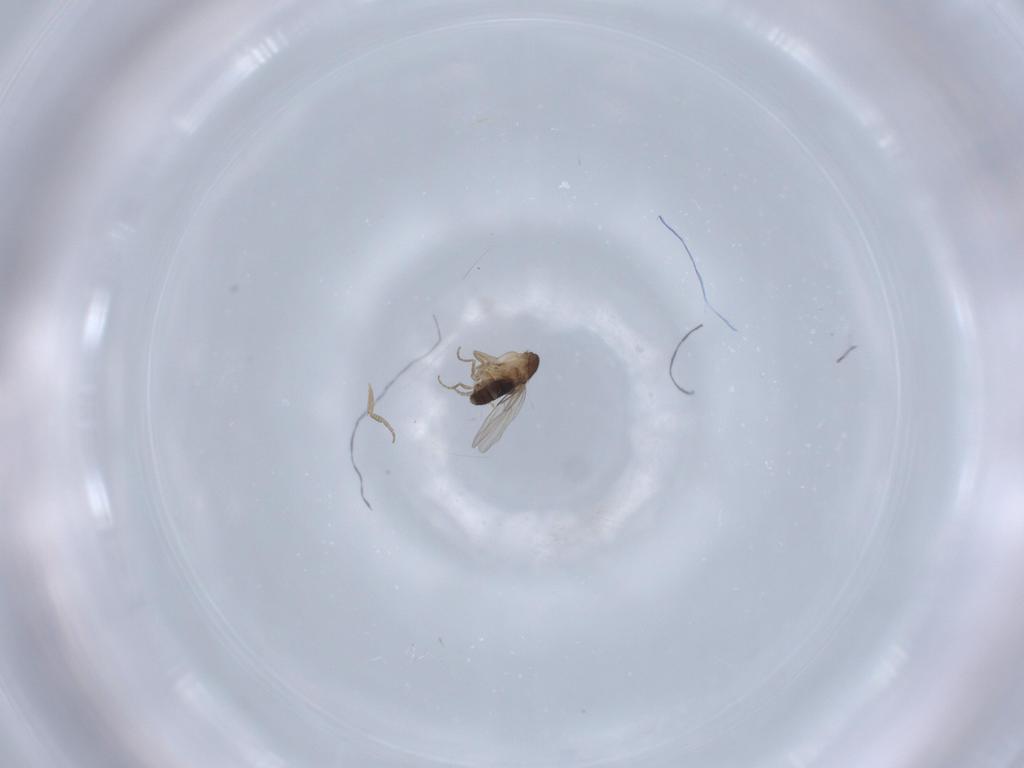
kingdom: Animalia
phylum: Arthropoda
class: Insecta
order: Diptera
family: Phoridae
